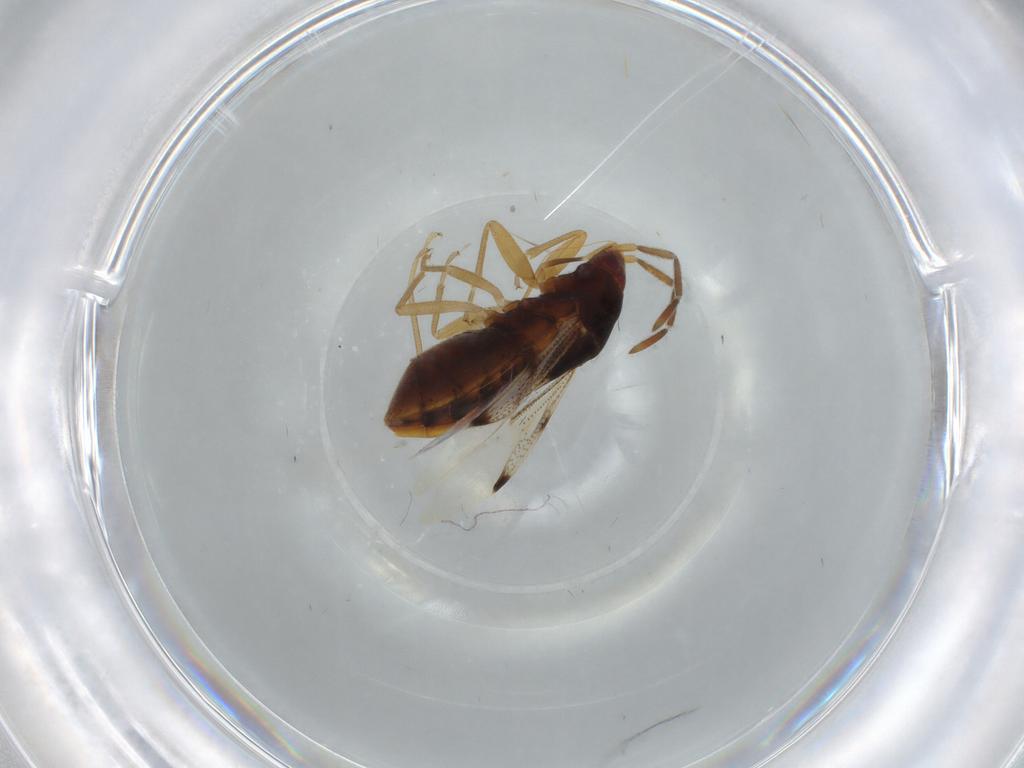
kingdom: Animalia
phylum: Arthropoda
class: Insecta
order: Hemiptera
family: Rhyparochromidae
